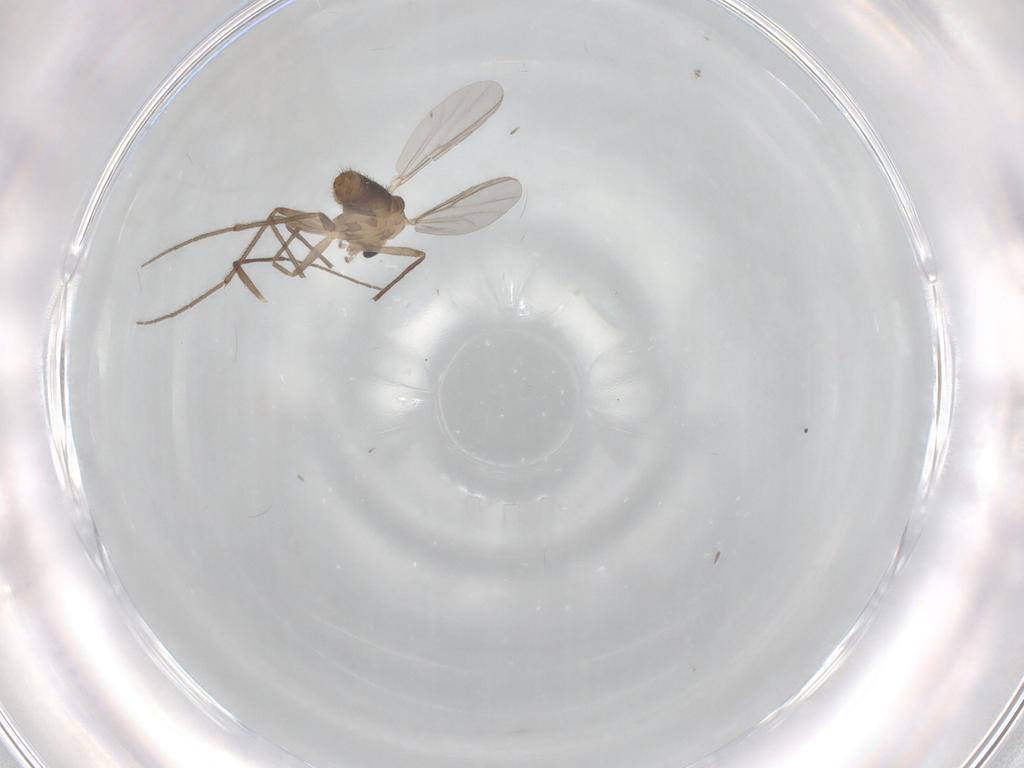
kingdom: Animalia
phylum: Arthropoda
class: Insecta
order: Diptera
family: Chironomidae
